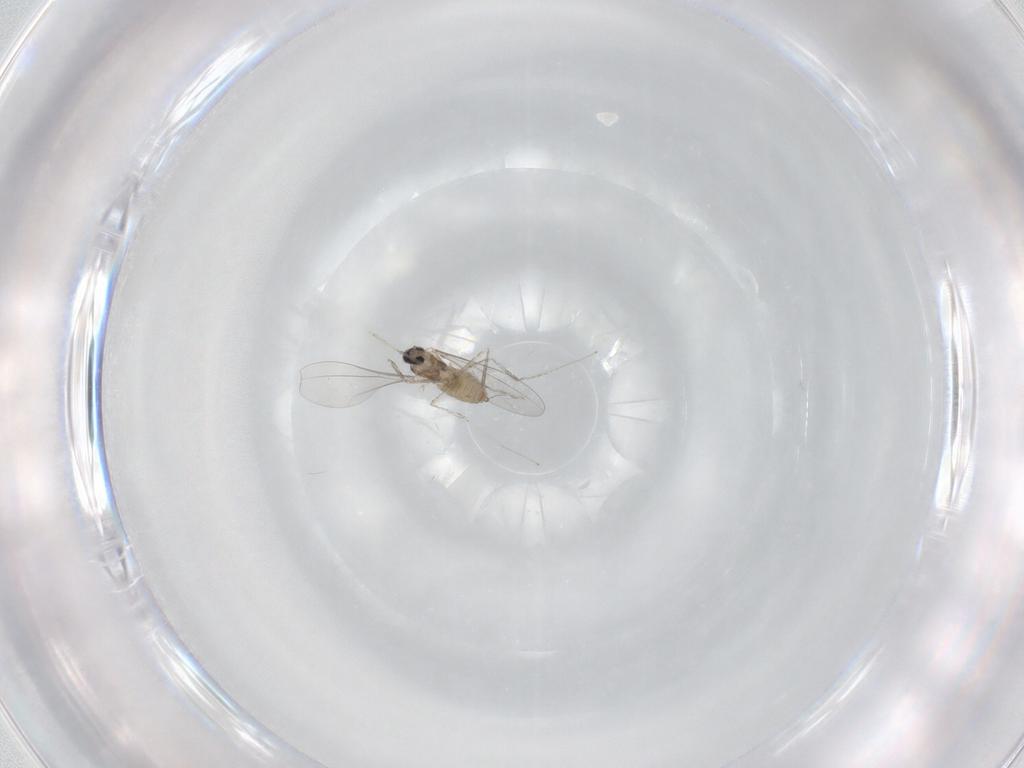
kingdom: Animalia
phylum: Arthropoda
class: Insecta
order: Diptera
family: Cecidomyiidae
